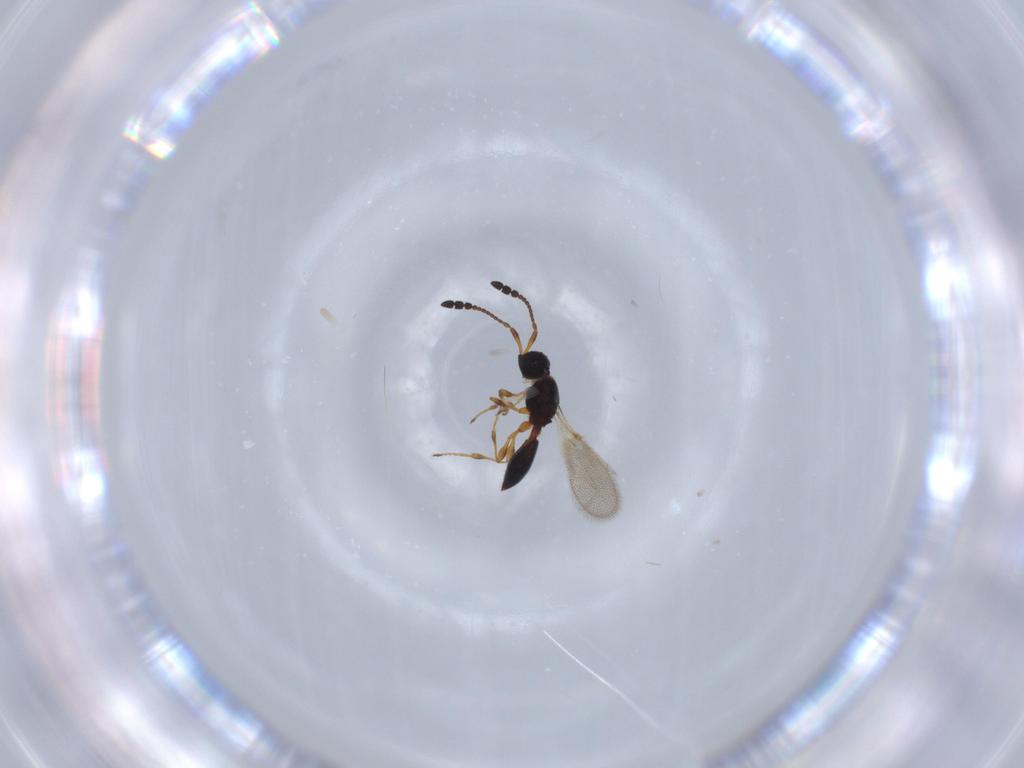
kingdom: Animalia
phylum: Arthropoda
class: Insecta
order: Hymenoptera
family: Diapriidae
